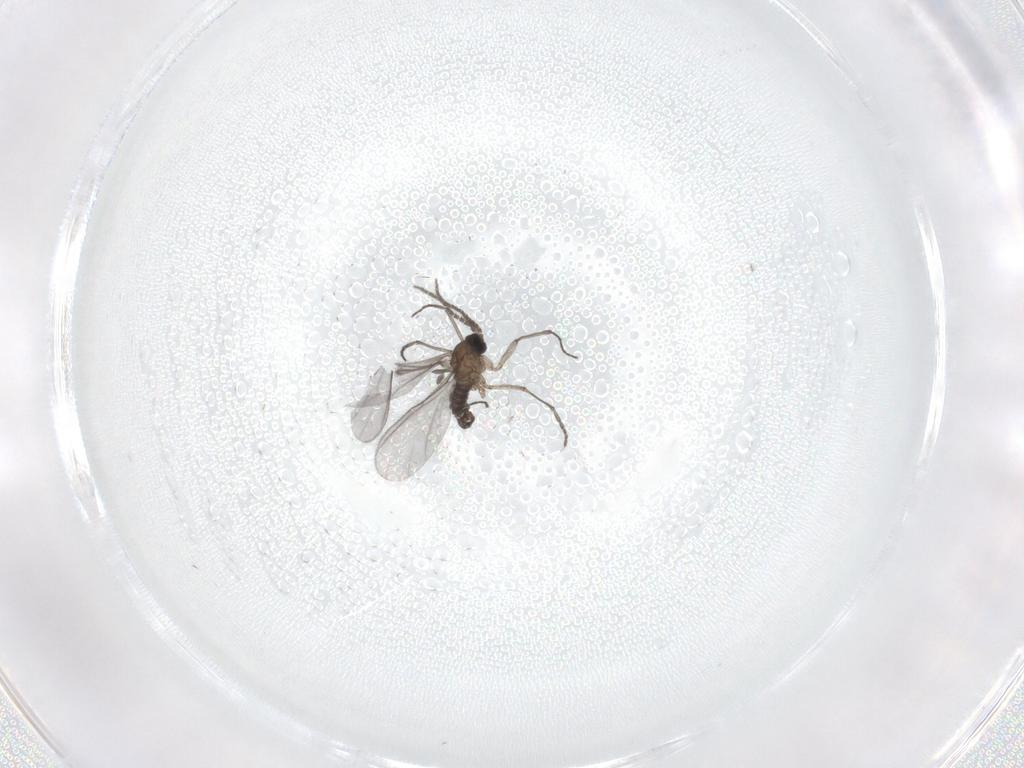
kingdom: Animalia
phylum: Arthropoda
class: Insecta
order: Diptera
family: Sciaridae
